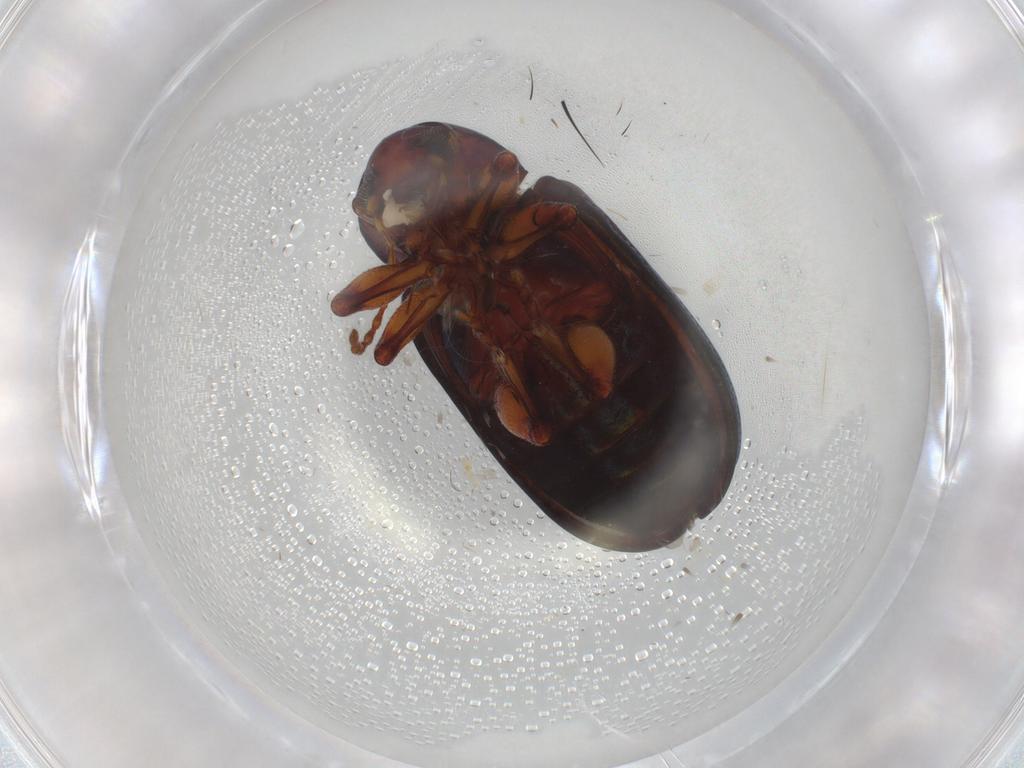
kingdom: Animalia
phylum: Arthropoda
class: Insecta
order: Coleoptera
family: Chrysomelidae
